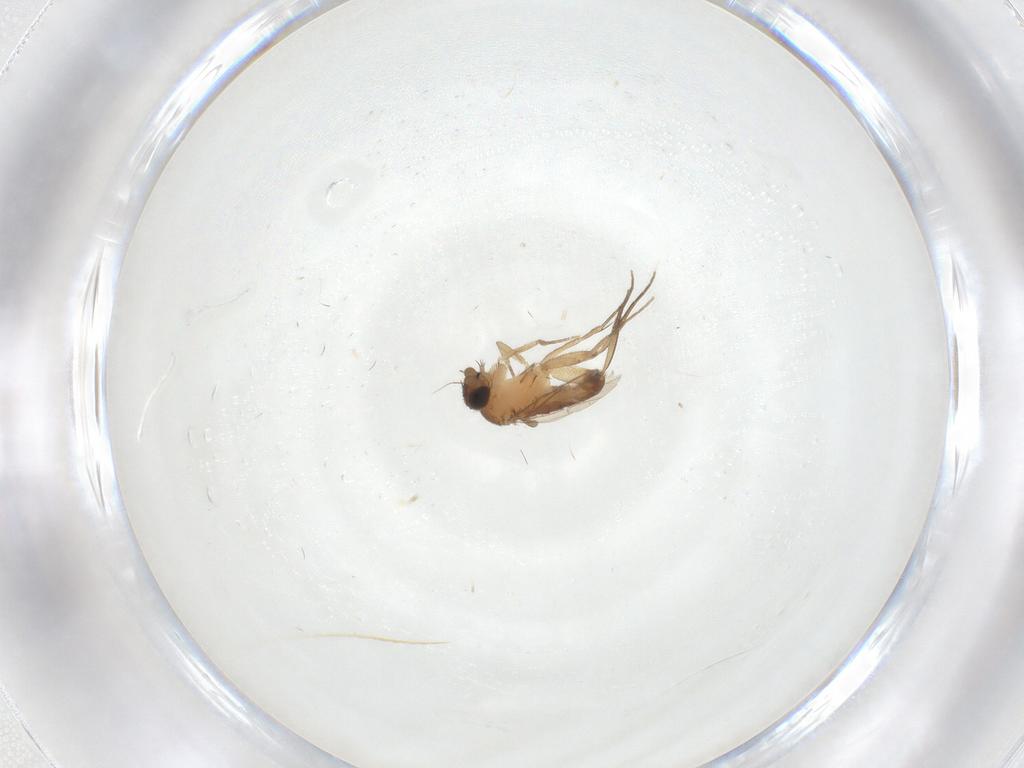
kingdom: Animalia
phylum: Arthropoda
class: Insecta
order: Diptera
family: Phoridae
